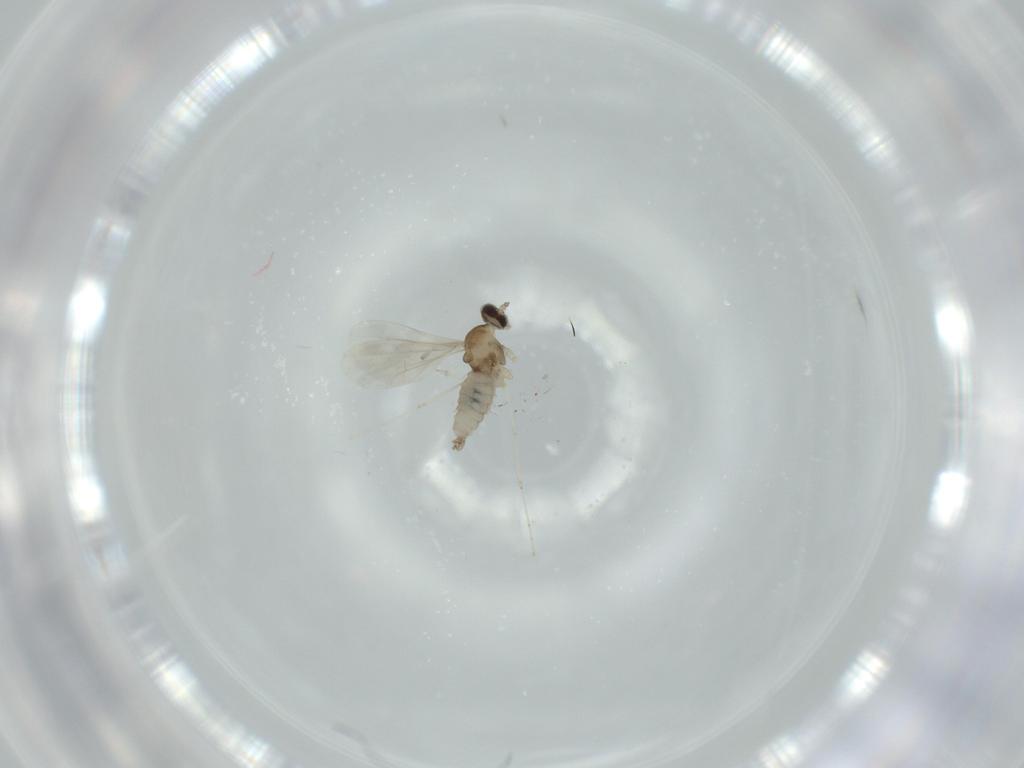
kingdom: Animalia
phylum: Arthropoda
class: Insecta
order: Diptera
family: Cecidomyiidae
